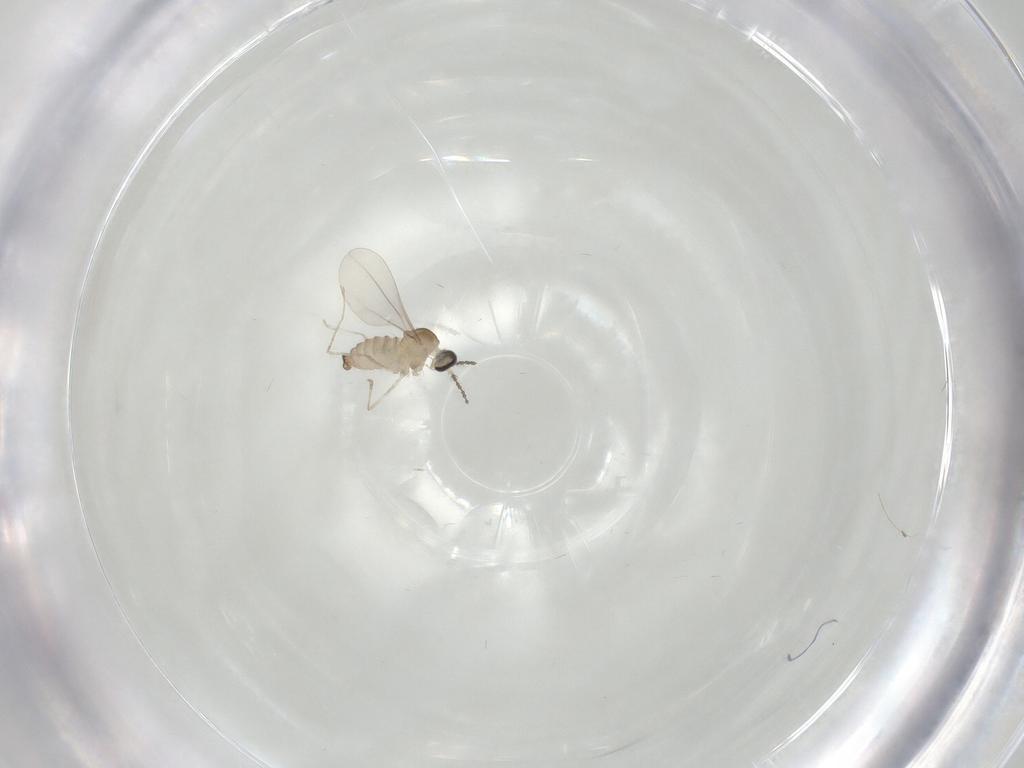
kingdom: Animalia
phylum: Arthropoda
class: Insecta
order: Diptera
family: Cecidomyiidae
